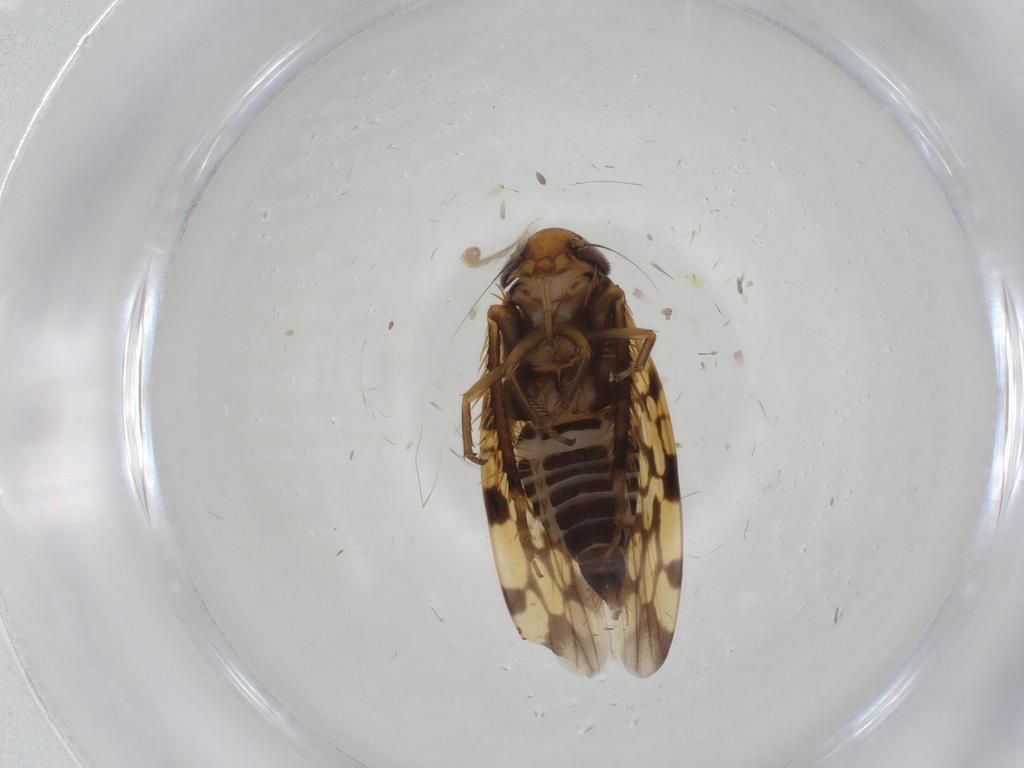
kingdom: Animalia
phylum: Arthropoda
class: Insecta
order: Hemiptera
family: Cicadellidae
